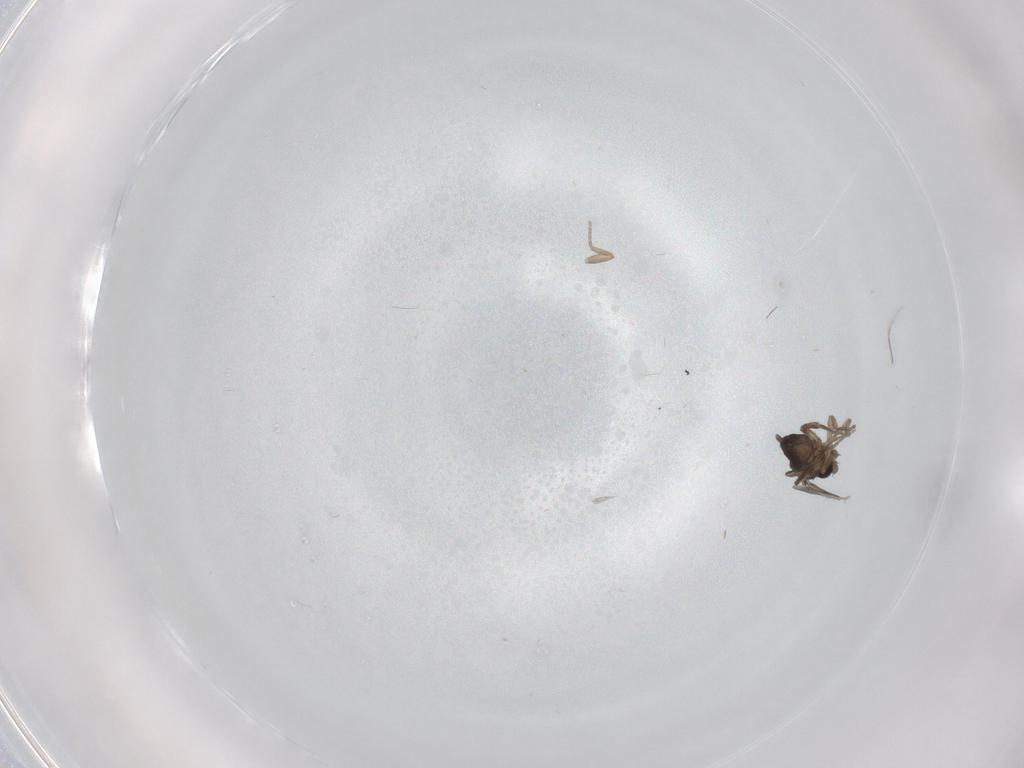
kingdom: Animalia
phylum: Arthropoda
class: Insecta
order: Diptera
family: Phoridae
